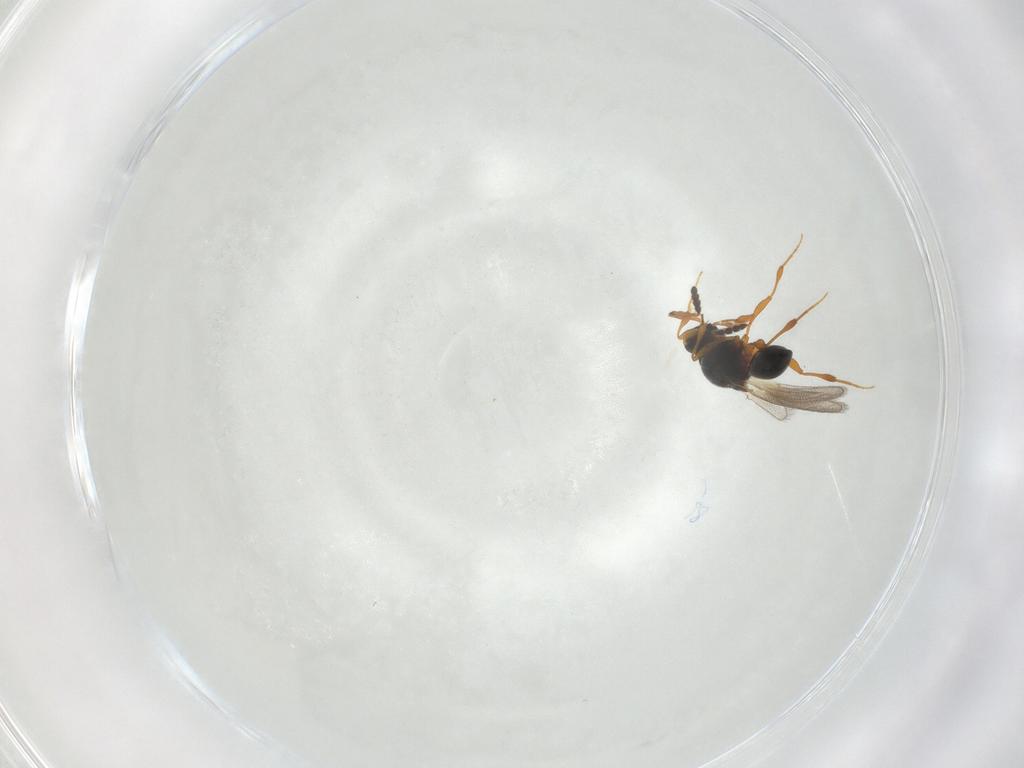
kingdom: Animalia
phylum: Arthropoda
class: Insecta
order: Hymenoptera
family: Platygastridae
